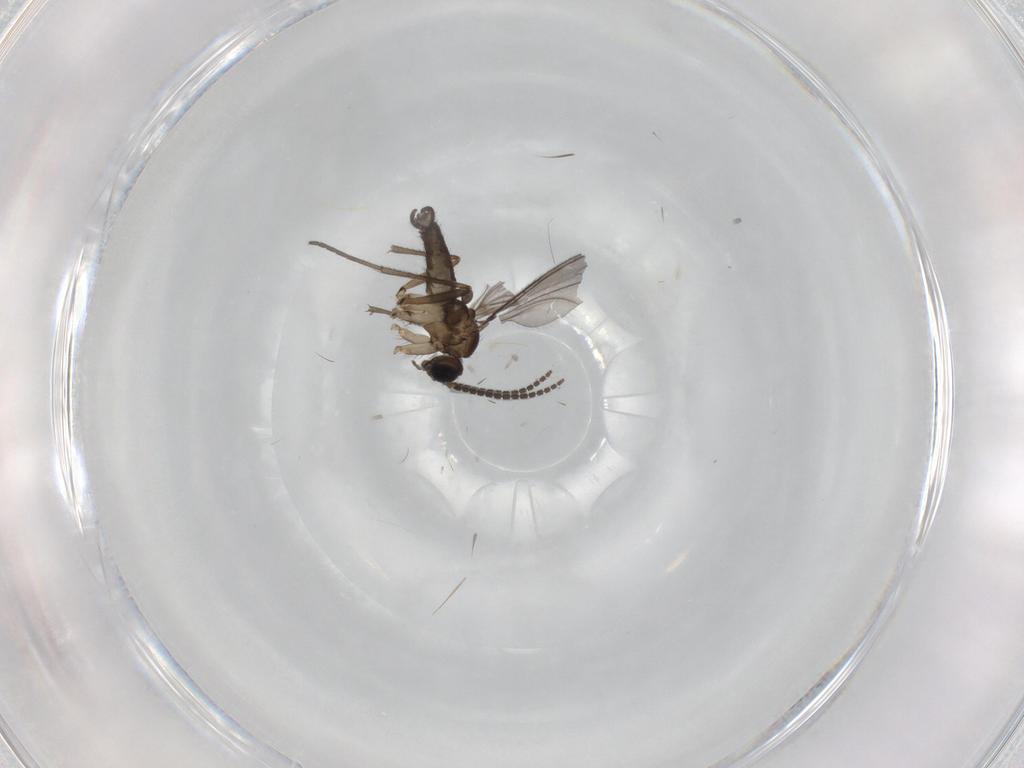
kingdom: Animalia
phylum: Arthropoda
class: Insecta
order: Diptera
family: Sciaridae
